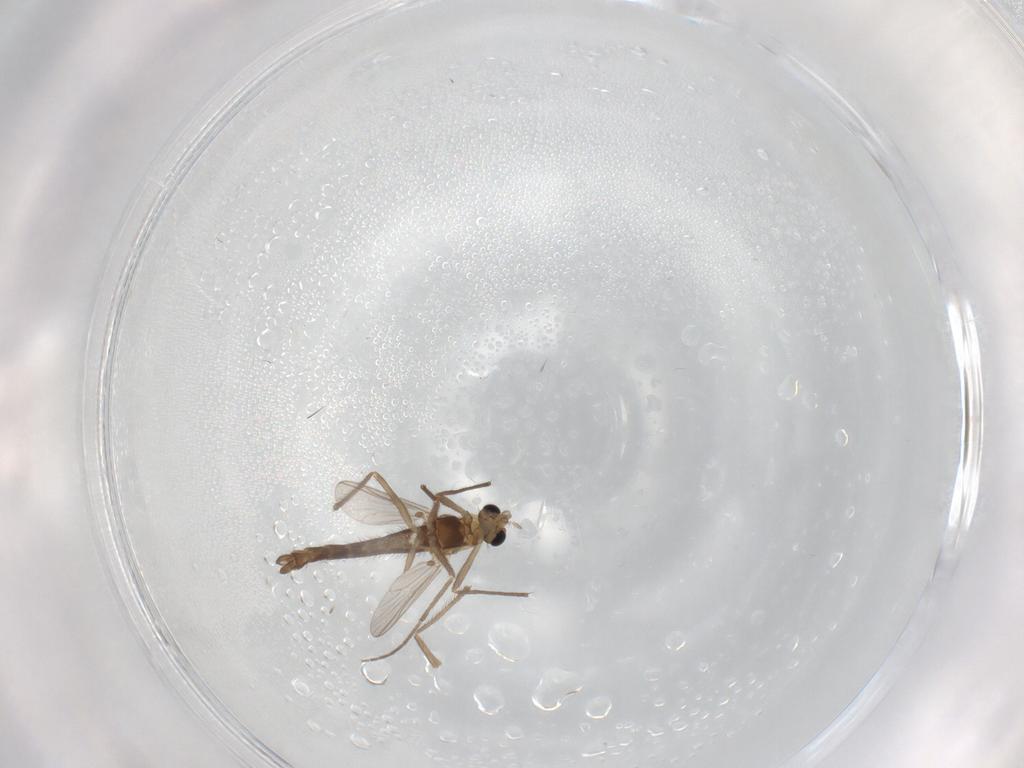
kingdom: Animalia
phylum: Arthropoda
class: Insecta
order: Diptera
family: Chironomidae
